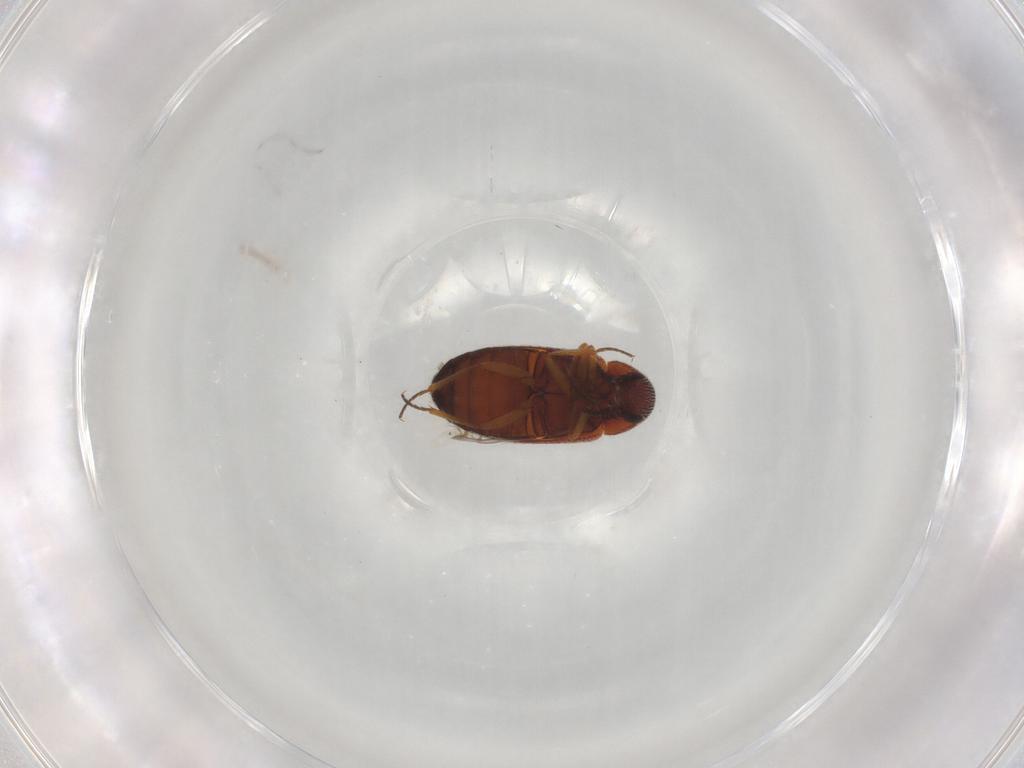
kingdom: Animalia
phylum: Arthropoda
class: Insecta
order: Coleoptera
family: Rhadalidae
